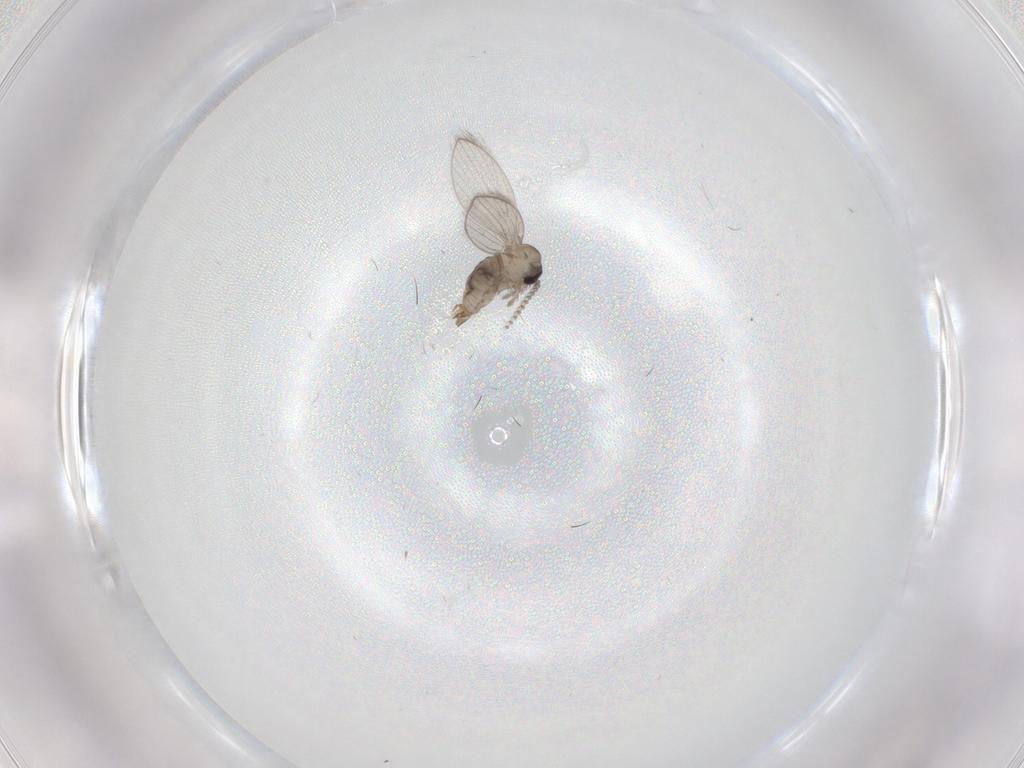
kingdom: Animalia
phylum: Arthropoda
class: Insecta
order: Diptera
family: Psychodidae
